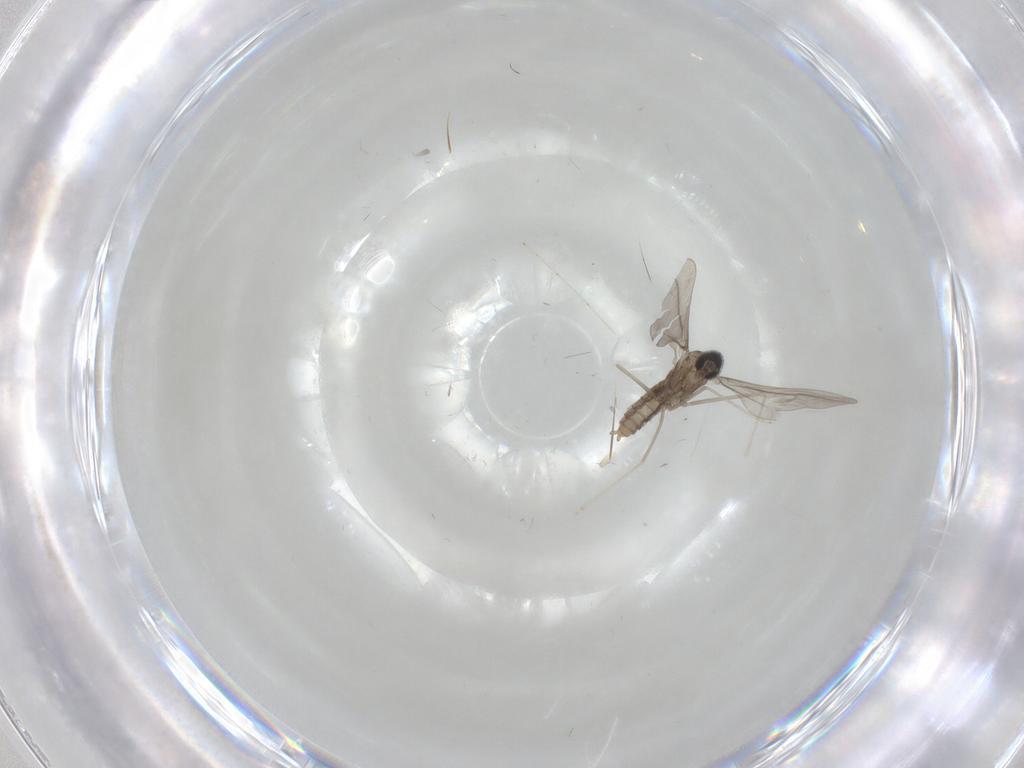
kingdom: Animalia
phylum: Arthropoda
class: Insecta
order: Diptera
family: Cecidomyiidae
